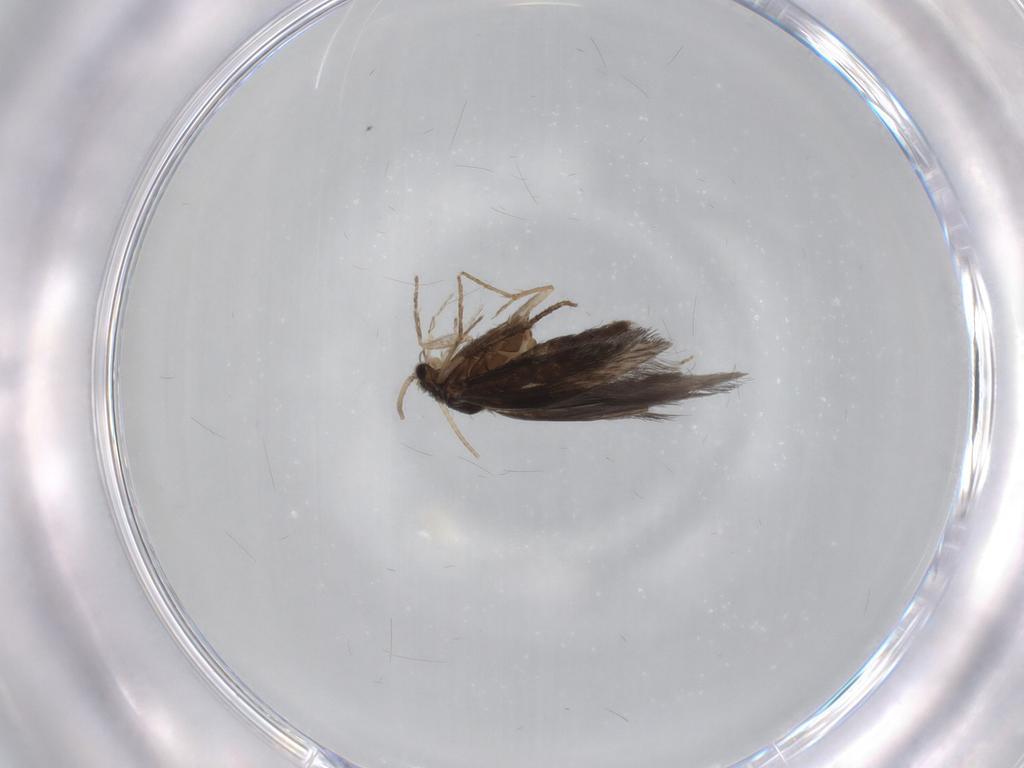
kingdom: Animalia
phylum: Arthropoda
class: Insecta
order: Trichoptera
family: Hydroptilidae
